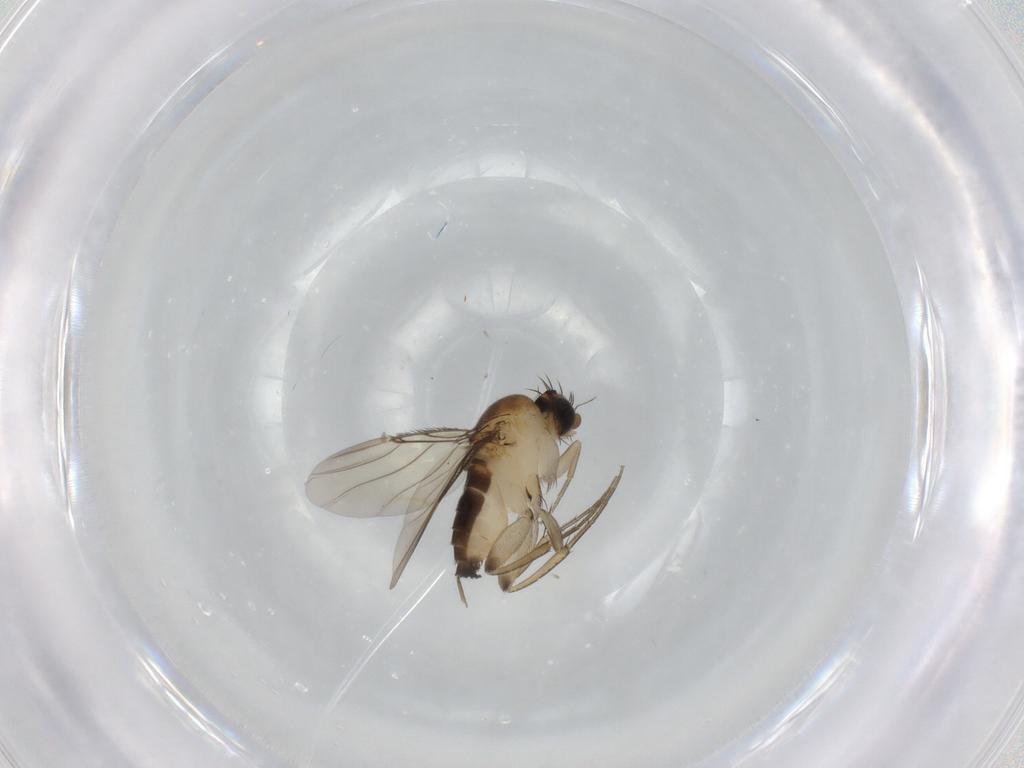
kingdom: Animalia
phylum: Arthropoda
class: Insecta
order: Diptera
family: Phoridae
